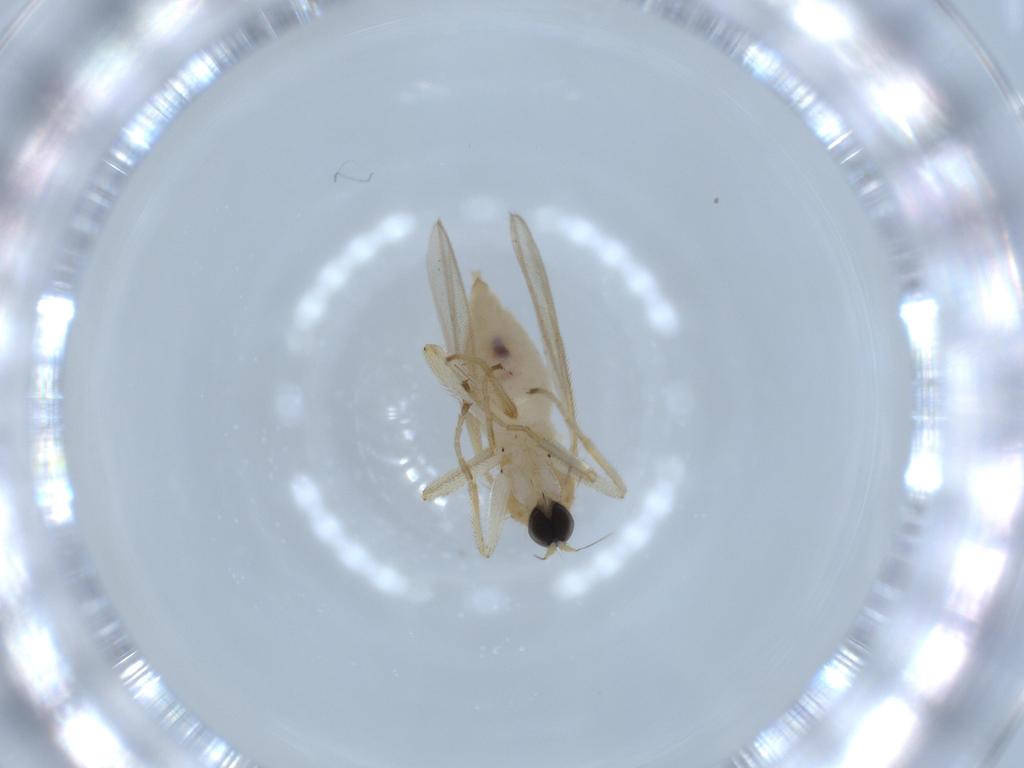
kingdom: Animalia
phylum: Arthropoda
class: Insecta
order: Diptera
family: Hybotidae
